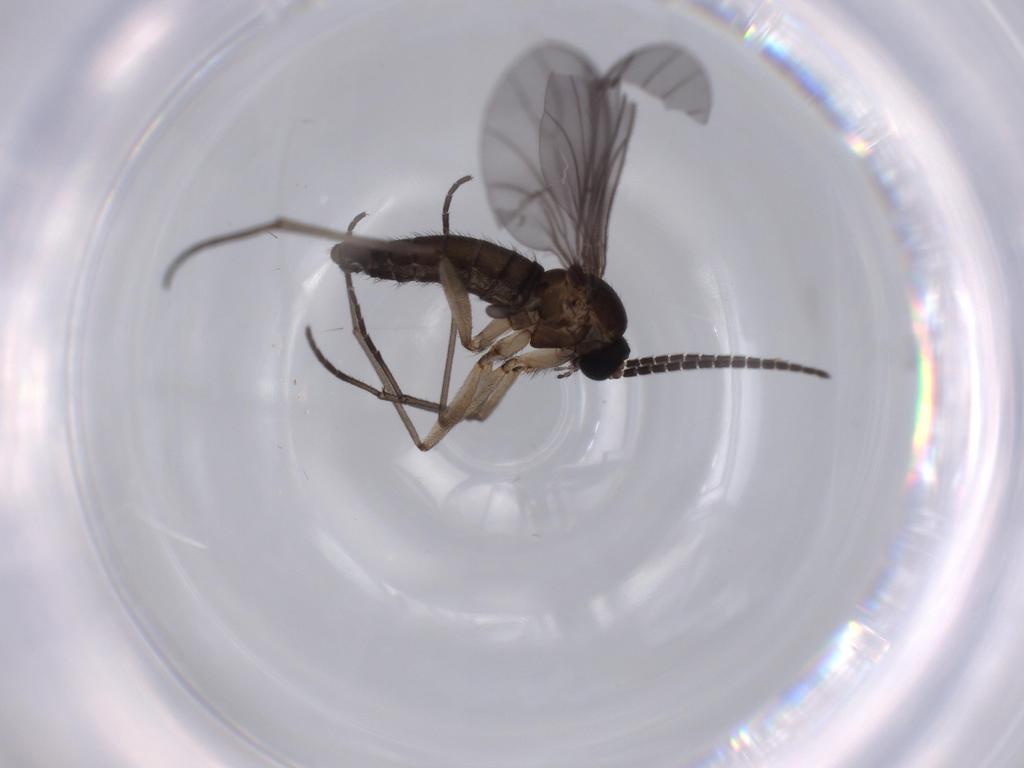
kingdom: Animalia
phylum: Arthropoda
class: Insecta
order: Diptera
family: Sciaridae
